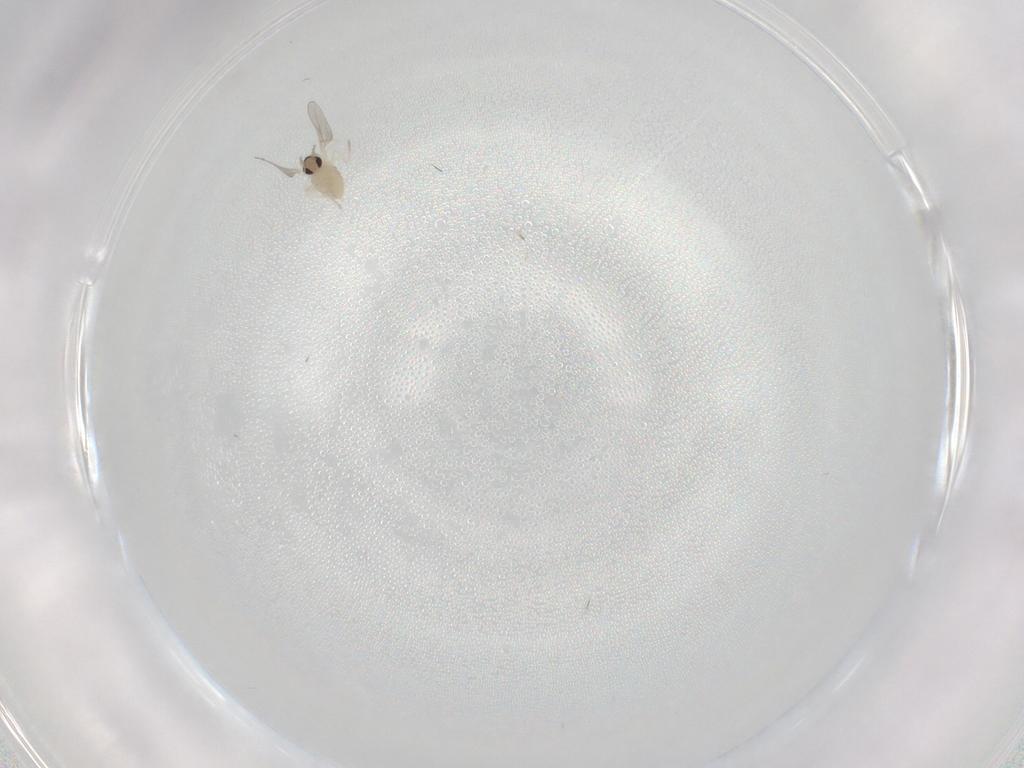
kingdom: Animalia
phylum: Arthropoda
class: Insecta
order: Diptera
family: Cecidomyiidae
